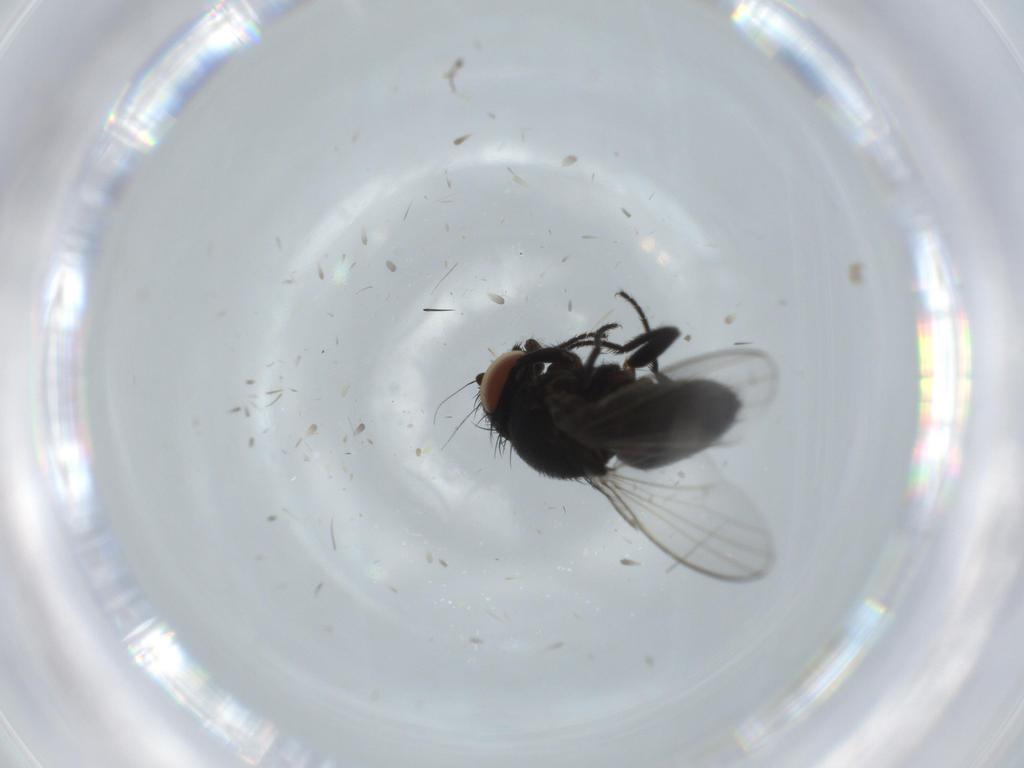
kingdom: Animalia
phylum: Arthropoda
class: Insecta
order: Diptera
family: Milichiidae
